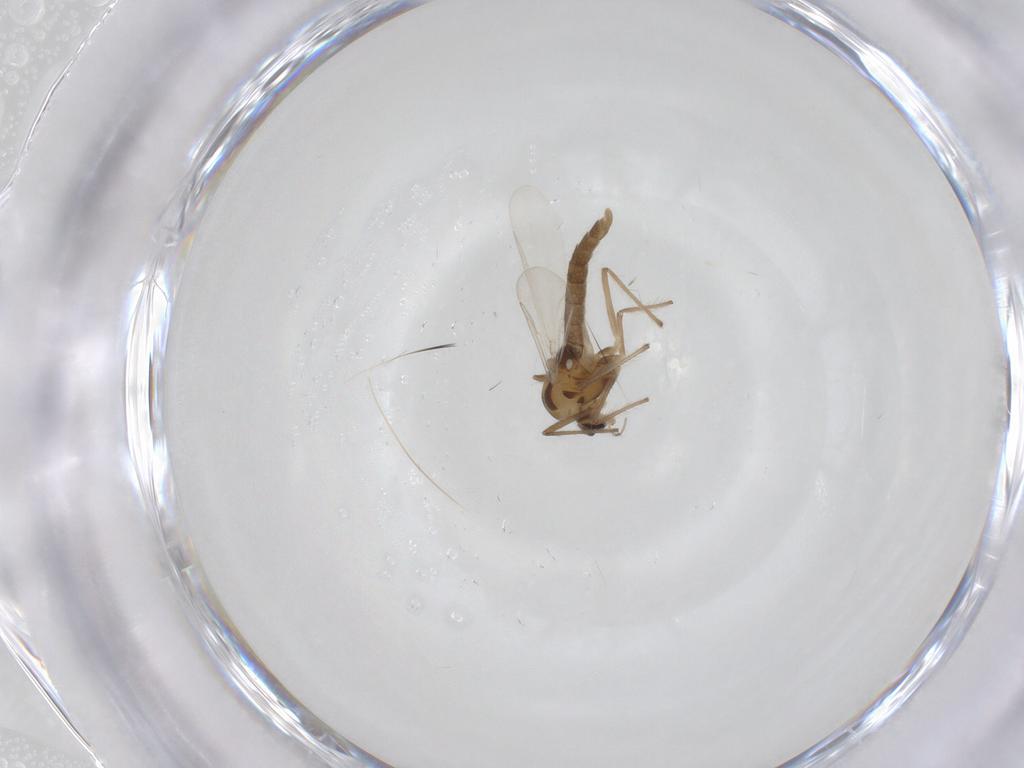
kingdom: Animalia
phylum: Arthropoda
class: Insecta
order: Diptera
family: Chironomidae
